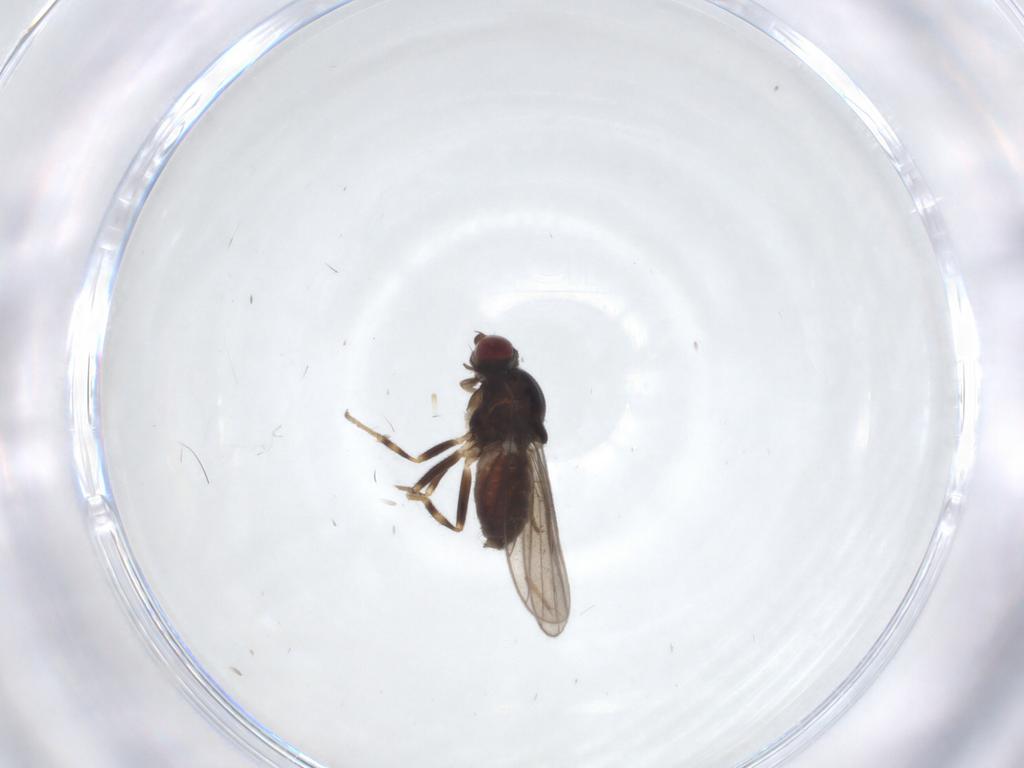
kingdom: Animalia
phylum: Arthropoda
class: Insecta
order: Diptera
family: Chloropidae
